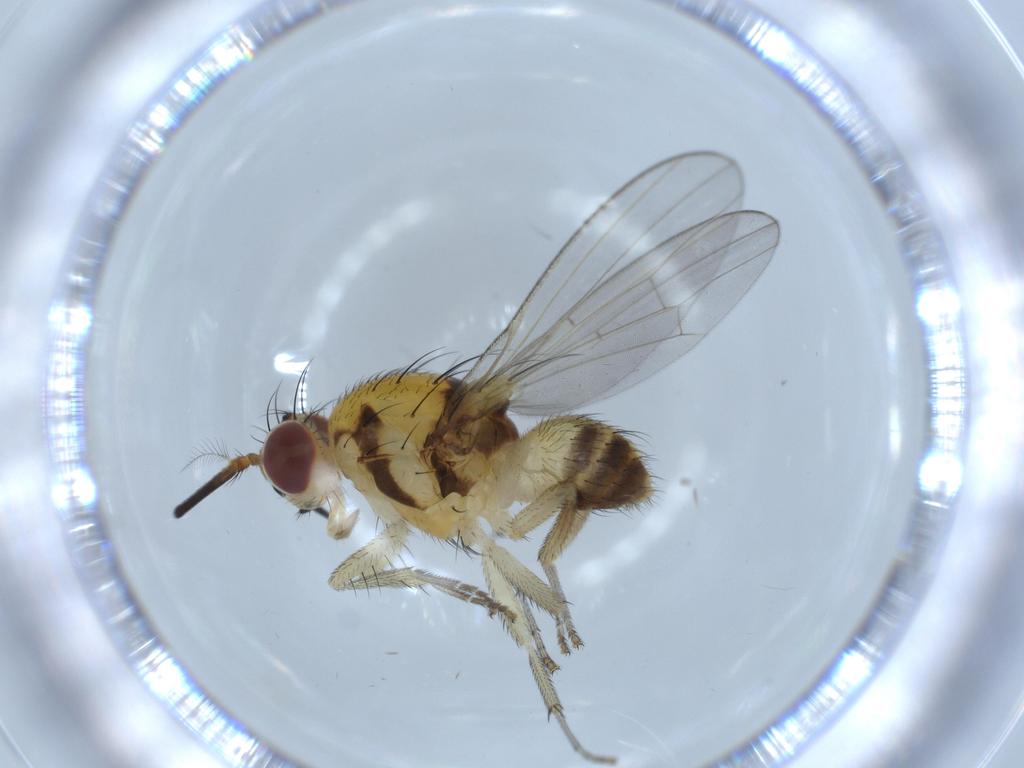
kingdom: Animalia
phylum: Arthropoda
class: Insecta
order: Diptera
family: Lauxaniidae
